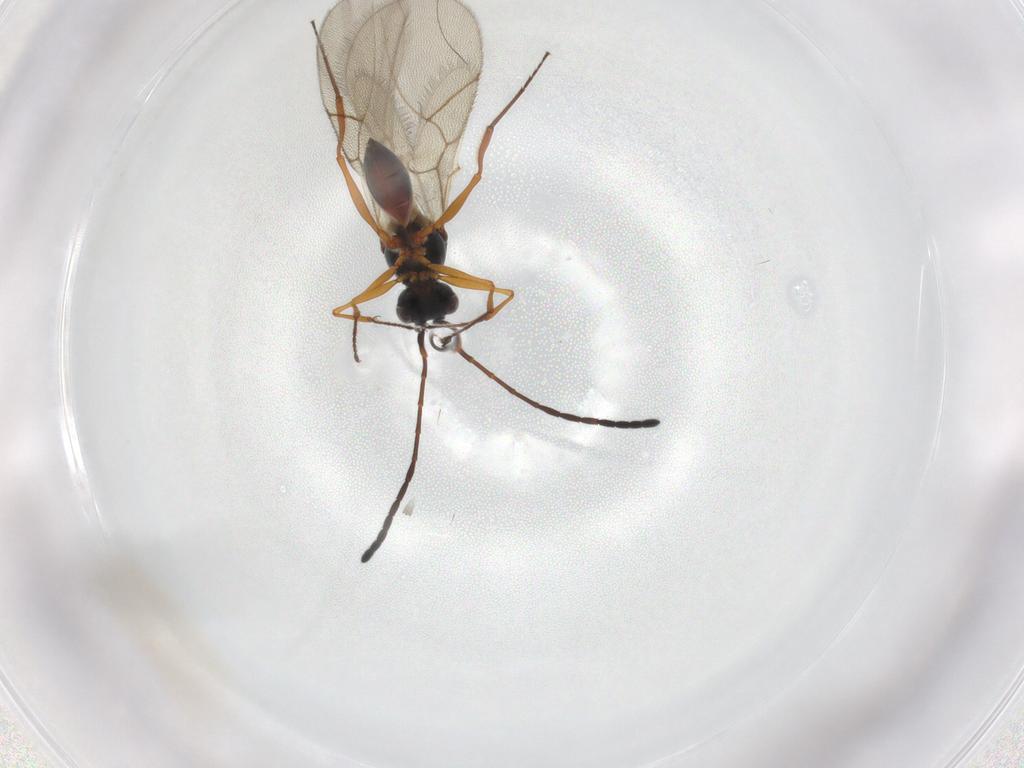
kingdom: Animalia
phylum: Arthropoda
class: Insecta
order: Hymenoptera
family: Figitidae
